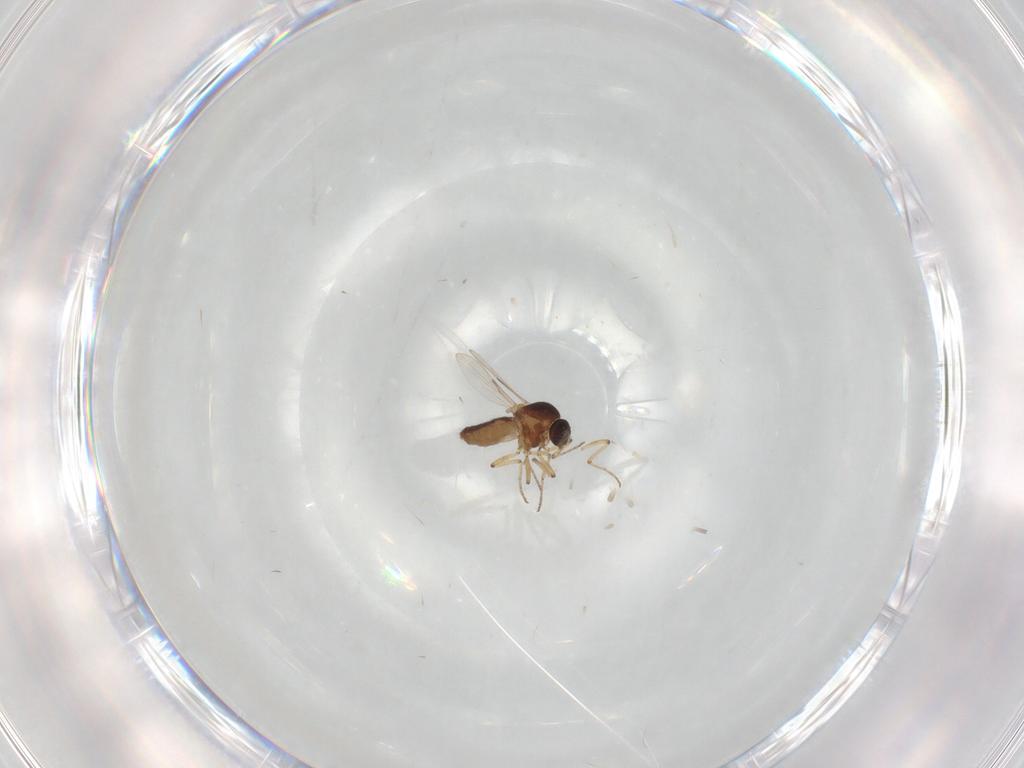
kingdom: Animalia
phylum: Arthropoda
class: Insecta
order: Diptera
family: Ceratopogonidae
